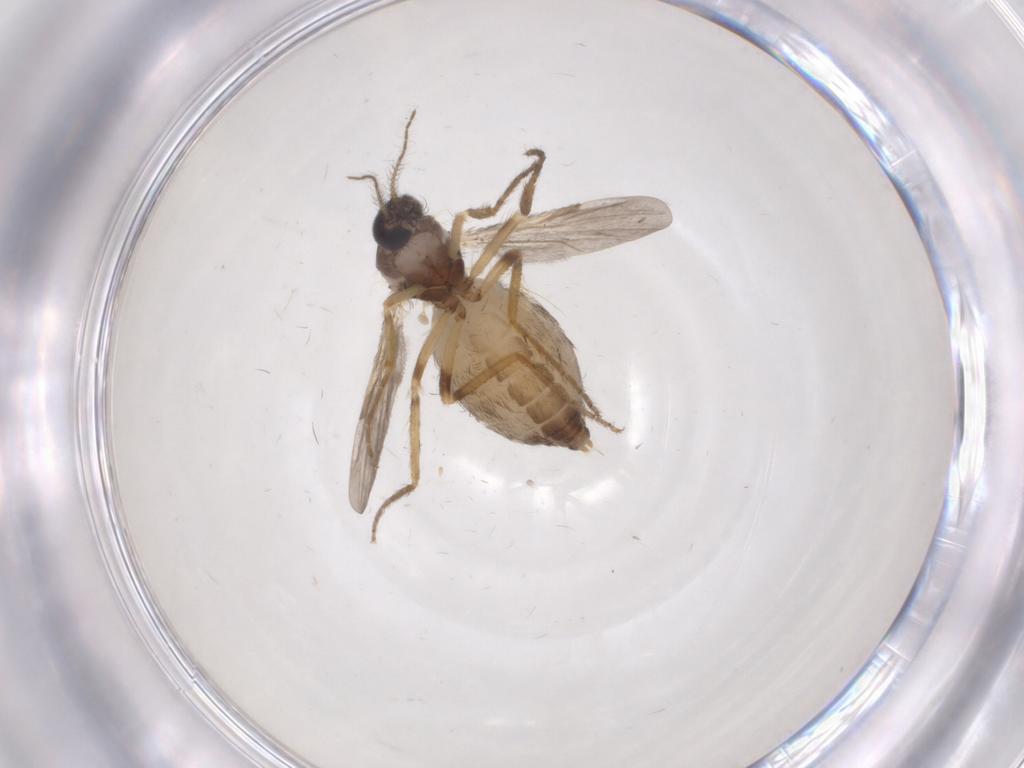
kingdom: Animalia
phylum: Arthropoda
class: Insecta
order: Diptera
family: Ceratopogonidae
